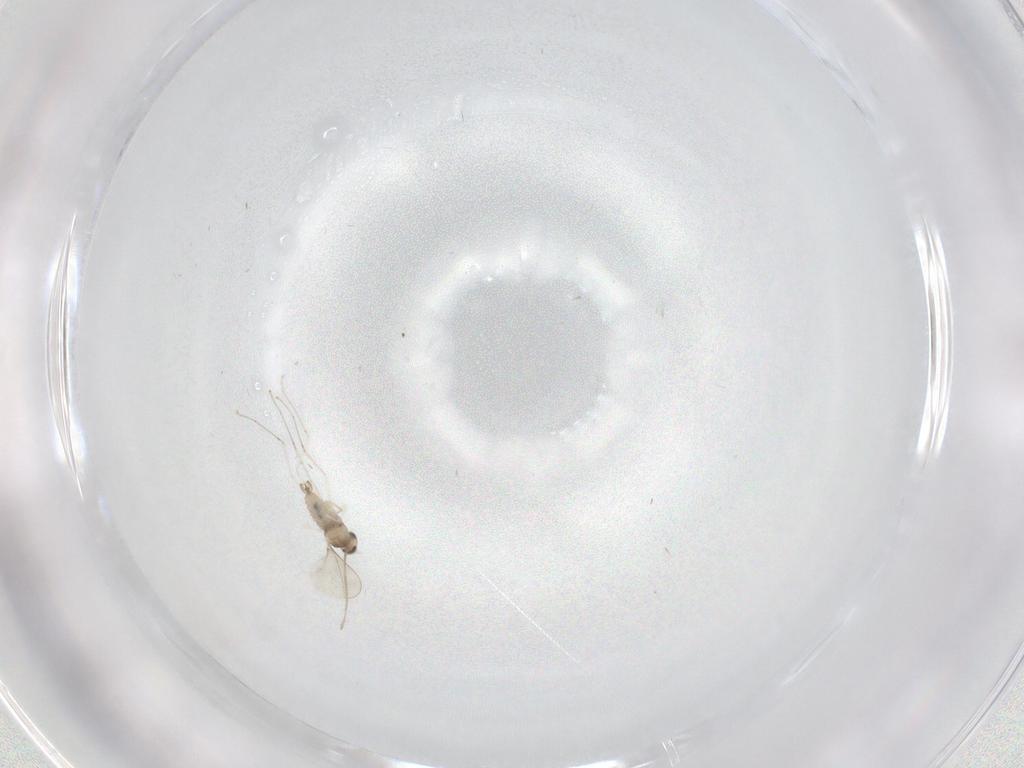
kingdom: Animalia
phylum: Arthropoda
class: Insecta
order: Diptera
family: Cecidomyiidae
